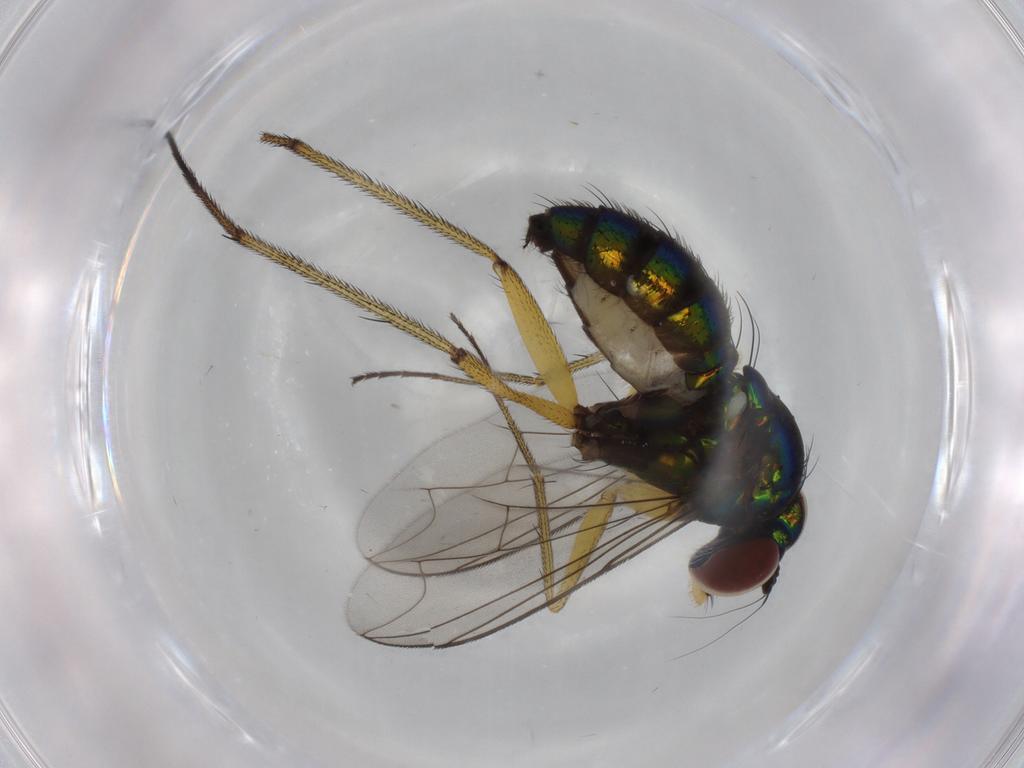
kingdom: Animalia
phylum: Arthropoda
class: Insecta
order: Diptera
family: Dolichopodidae
